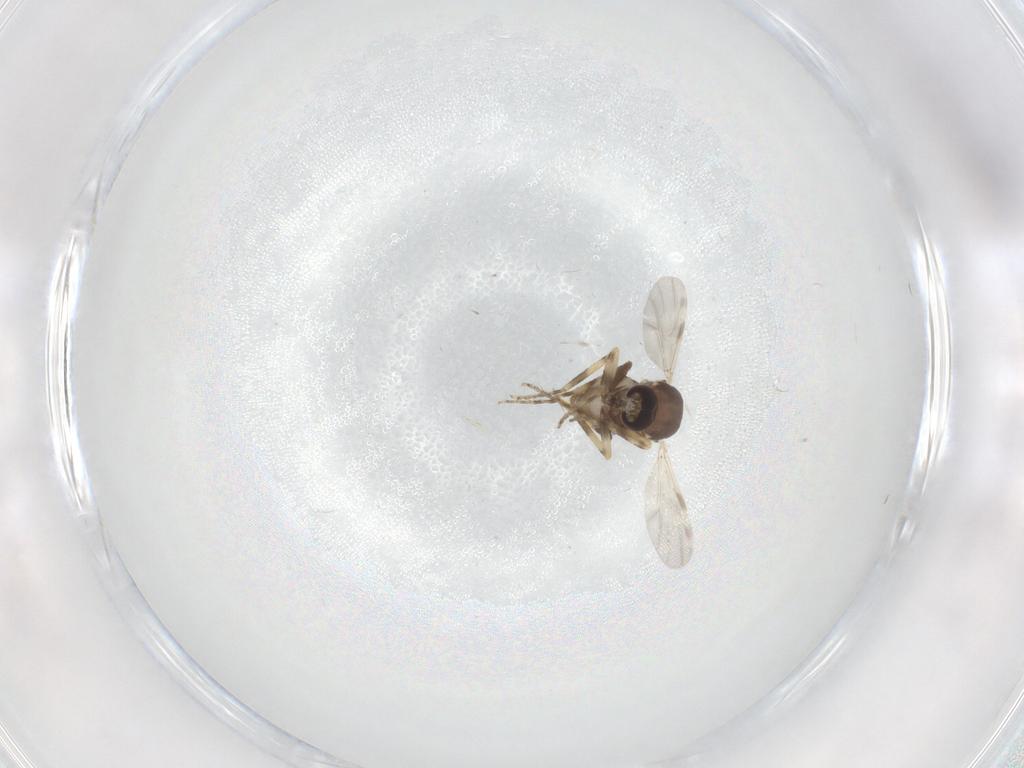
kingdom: Animalia
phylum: Arthropoda
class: Insecta
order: Diptera
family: Ceratopogonidae
